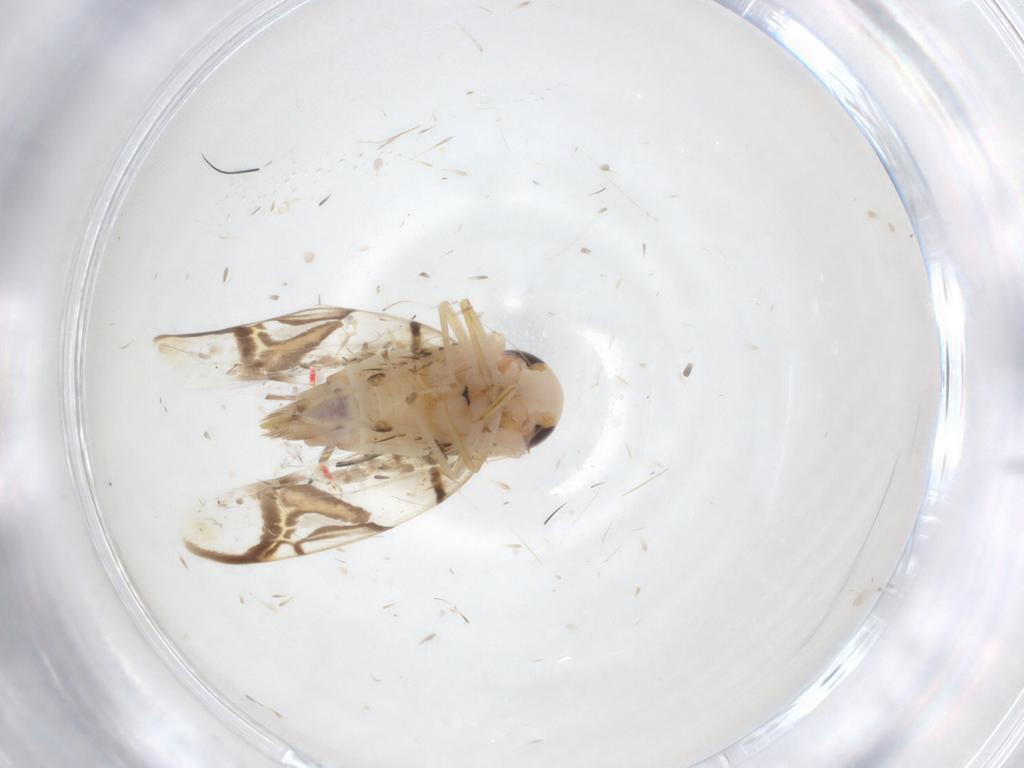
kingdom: Animalia
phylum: Arthropoda
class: Insecta
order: Hemiptera
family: Cicadellidae
